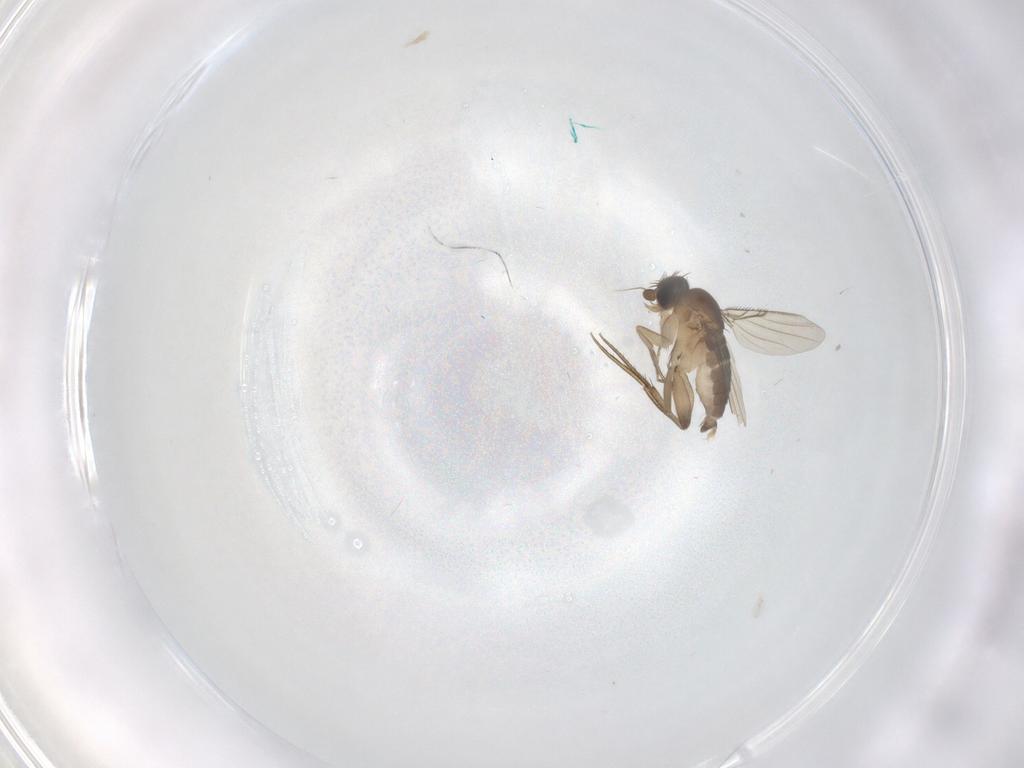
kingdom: Animalia
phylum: Arthropoda
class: Insecta
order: Diptera
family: Phoridae
